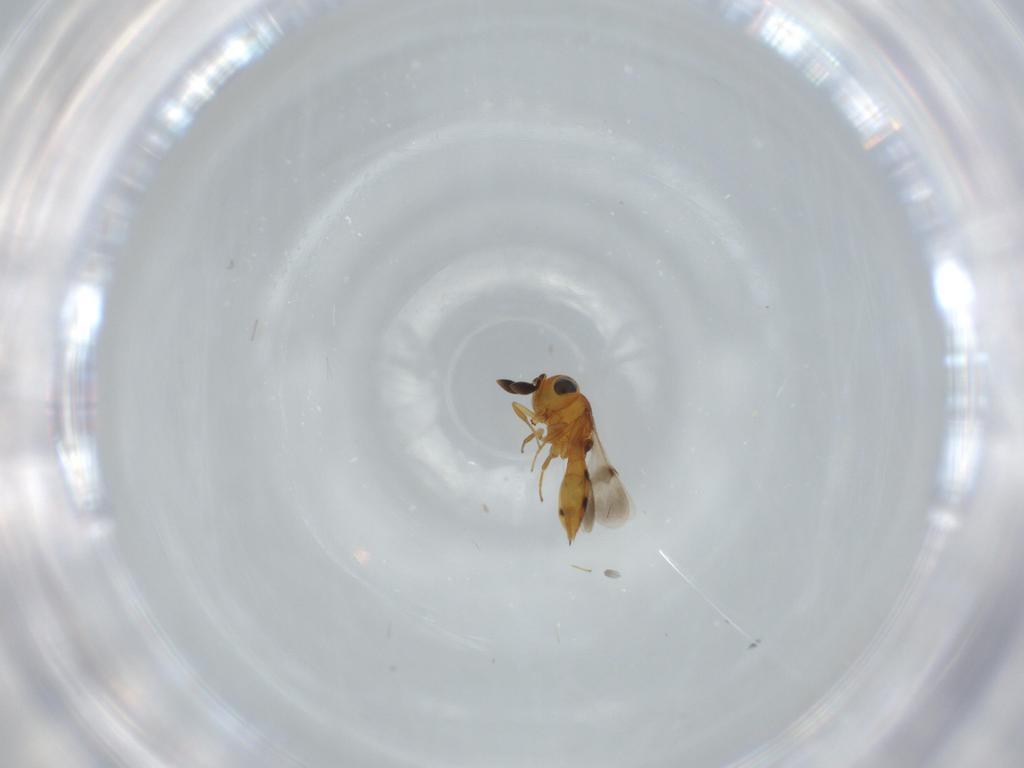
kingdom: Animalia
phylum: Arthropoda
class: Insecta
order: Hymenoptera
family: Scelionidae
